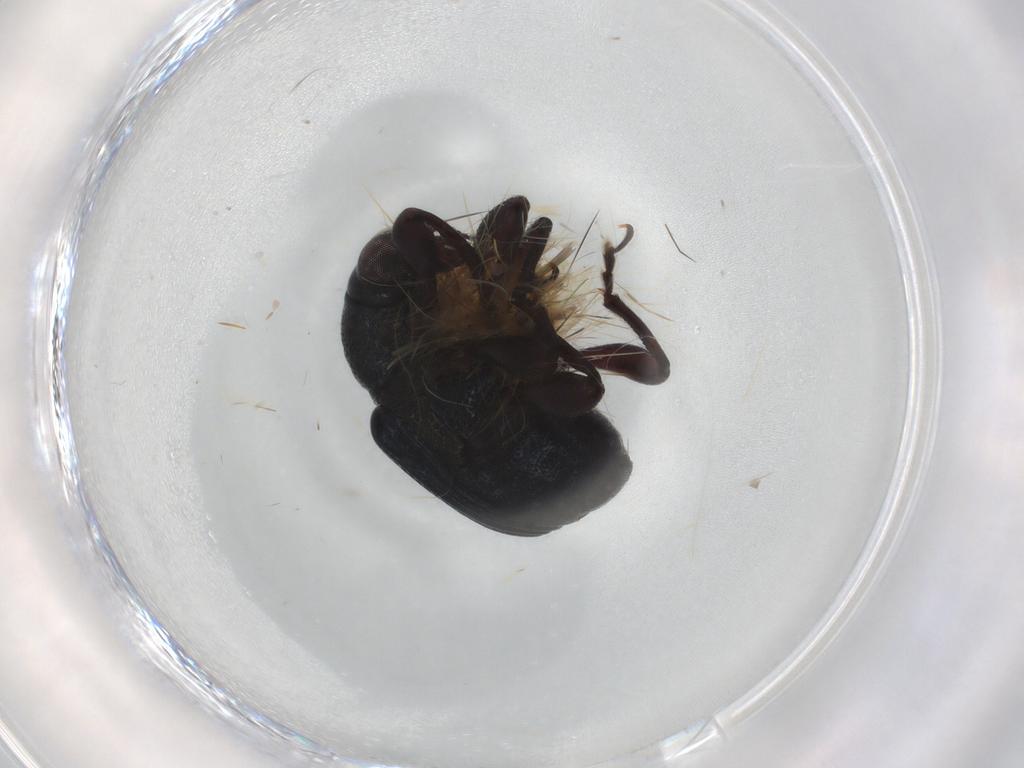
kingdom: Animalia
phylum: Arthropoda
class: Insecta
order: Coleoptera
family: Attelabidae
